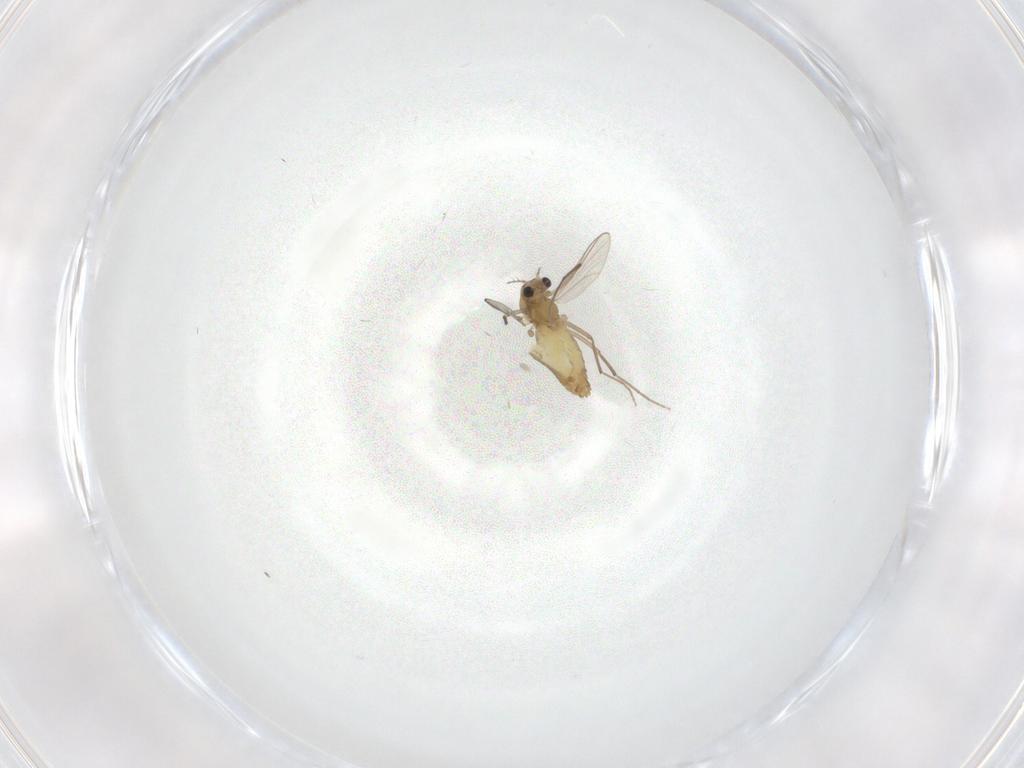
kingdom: Animalia
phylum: Arthropoda
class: Insecta
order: Diptera
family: Chironomidae
